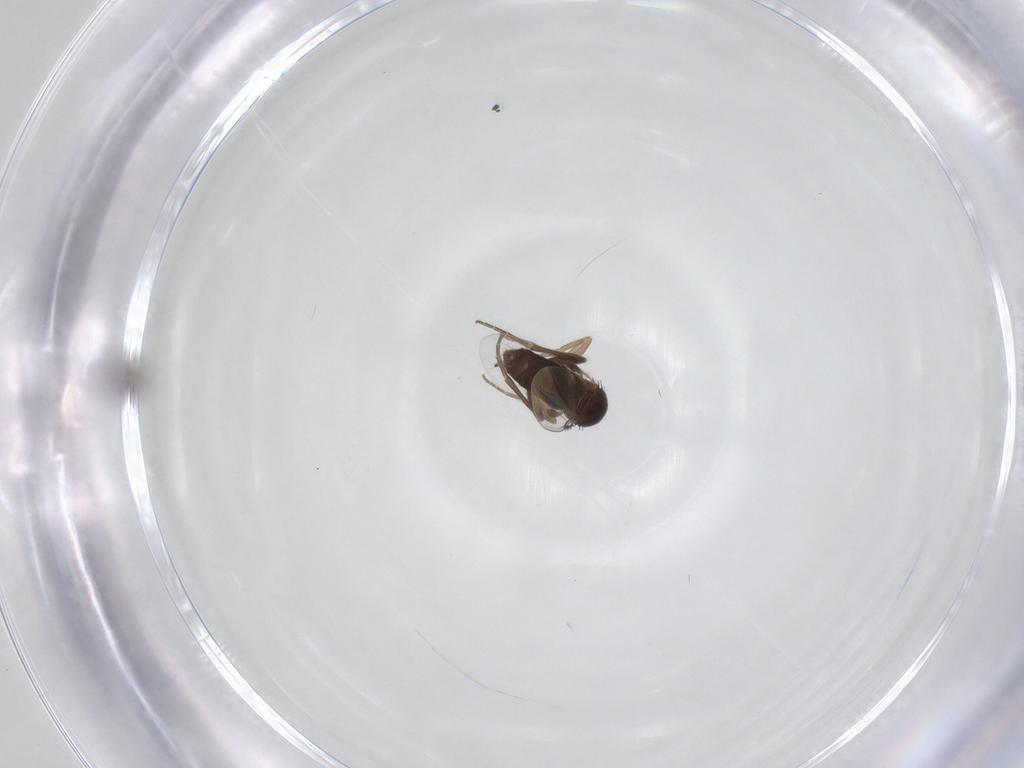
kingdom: Animalia
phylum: Arthropoda
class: Insecta
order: Diptera
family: Phoridae
